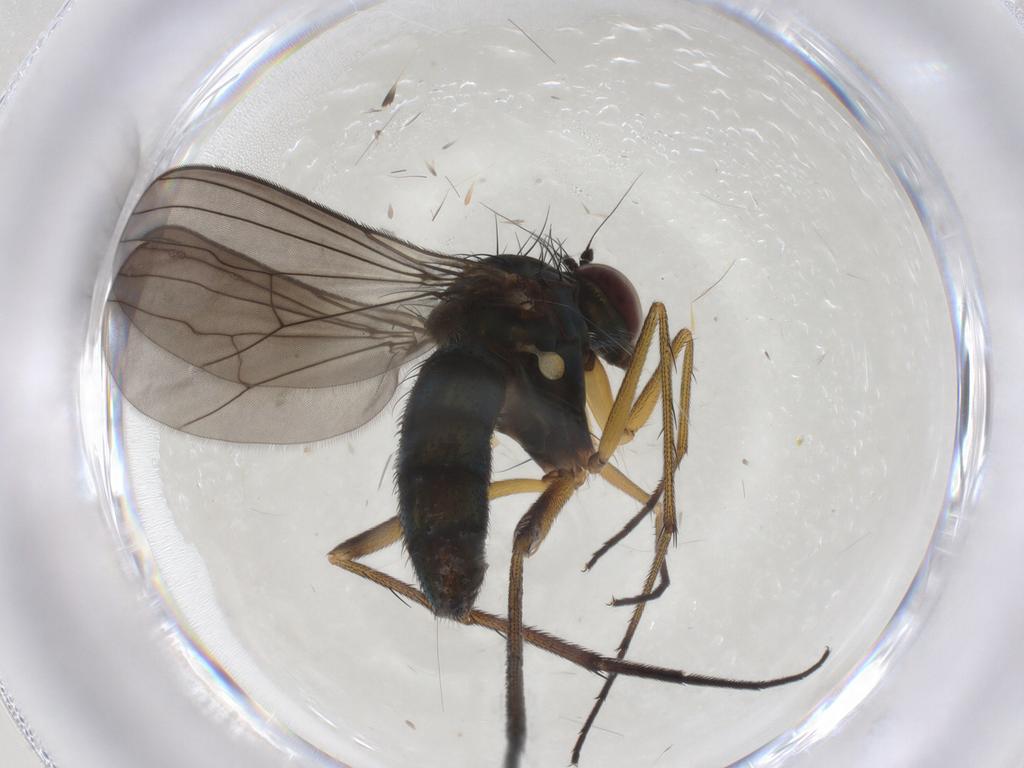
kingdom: Animalia
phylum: Arthropoda
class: Insecta
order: Diptera
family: Dolichopodidae
